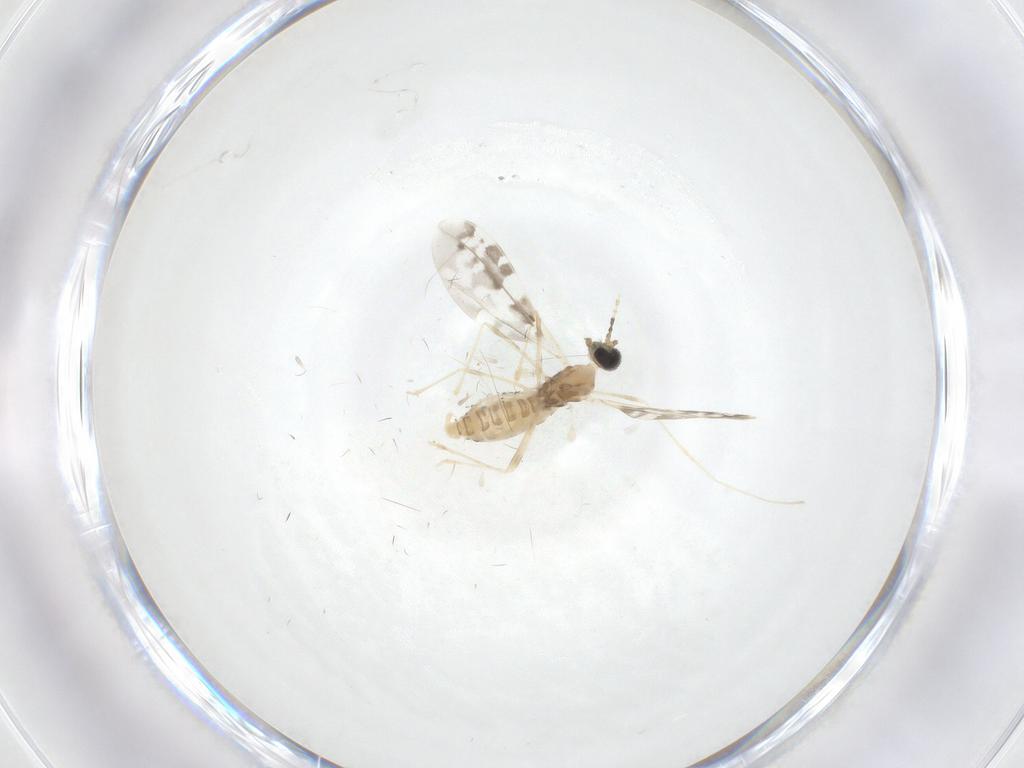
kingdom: Animalia
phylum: Arthropoda
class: Insecta
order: Diptera
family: Cecidomyiidae
